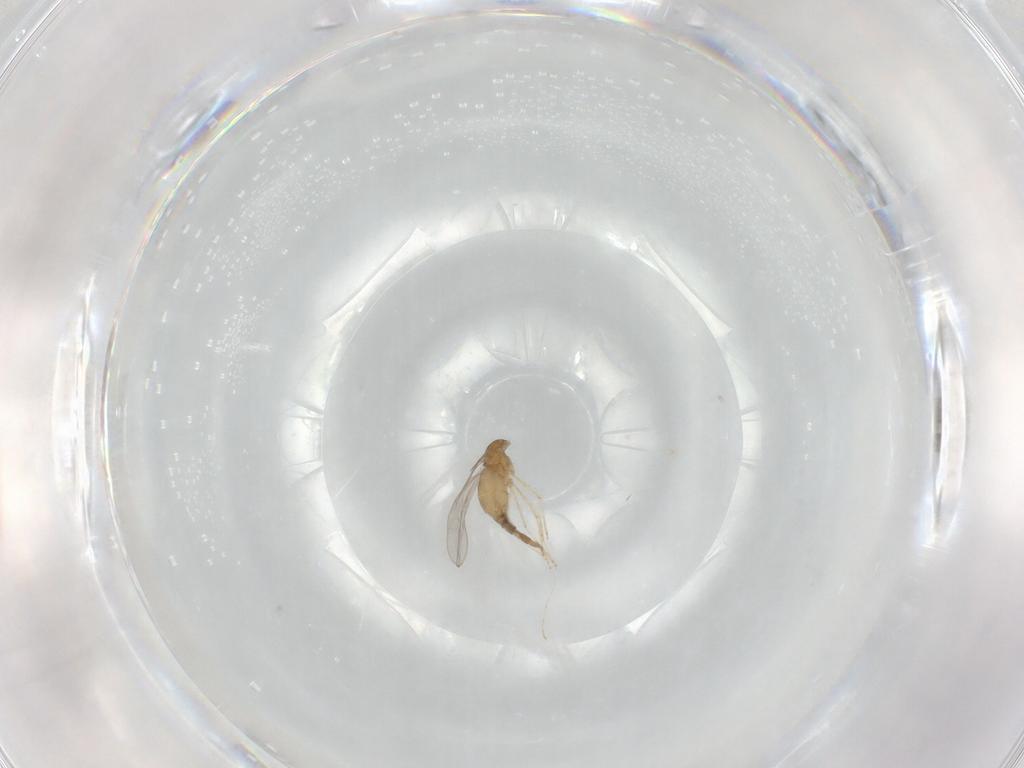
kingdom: Animalia
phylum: Arthropoda
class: Insecta
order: Diptera
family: Cecidomyiidae
